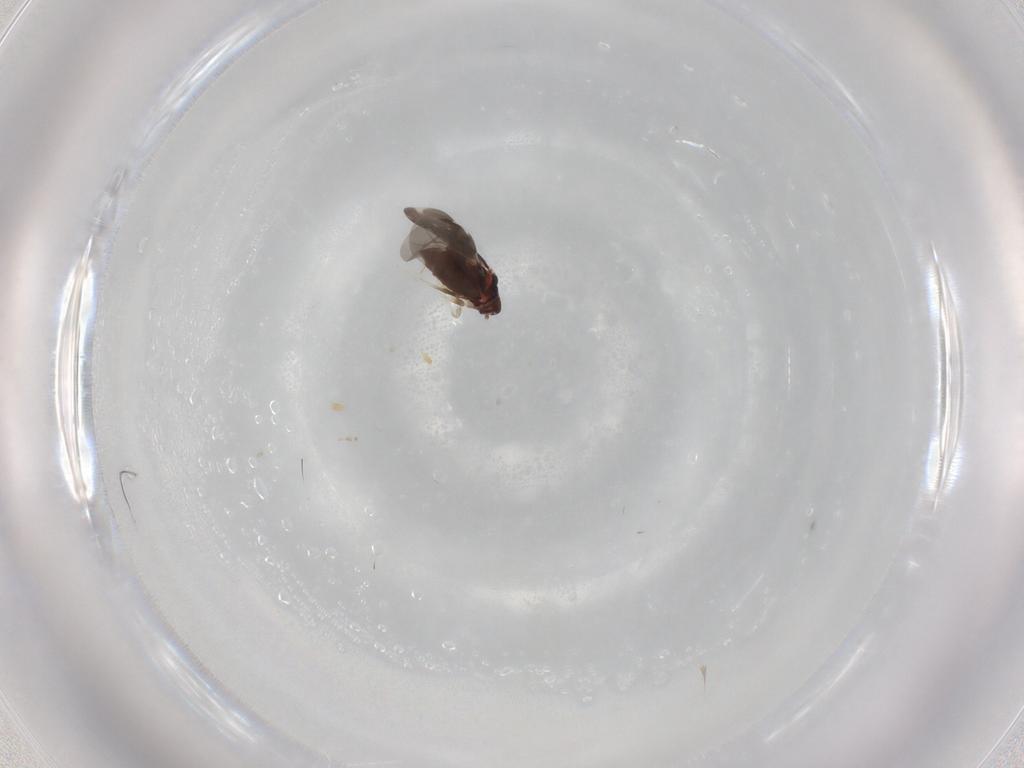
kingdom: Animalia
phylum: Arthropoda
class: Insecta
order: Hemiptera
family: Aleyrodidae
